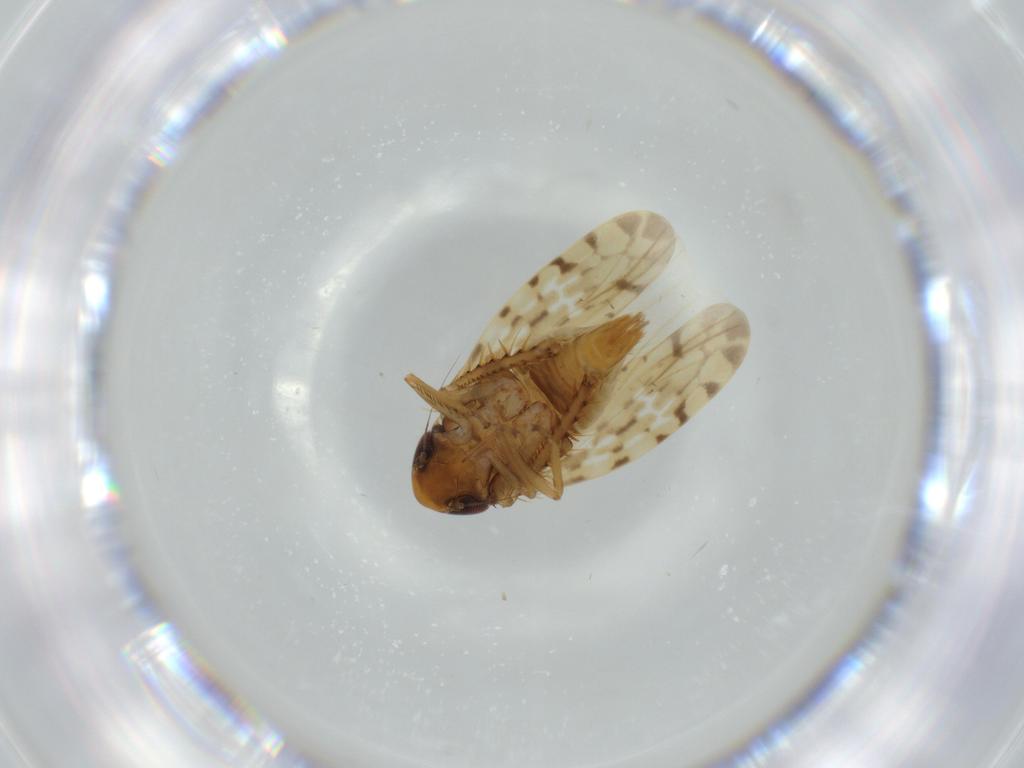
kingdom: Animalia
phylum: Arthropoda
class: Insecta
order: Hemiptera
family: Cicadellidae
